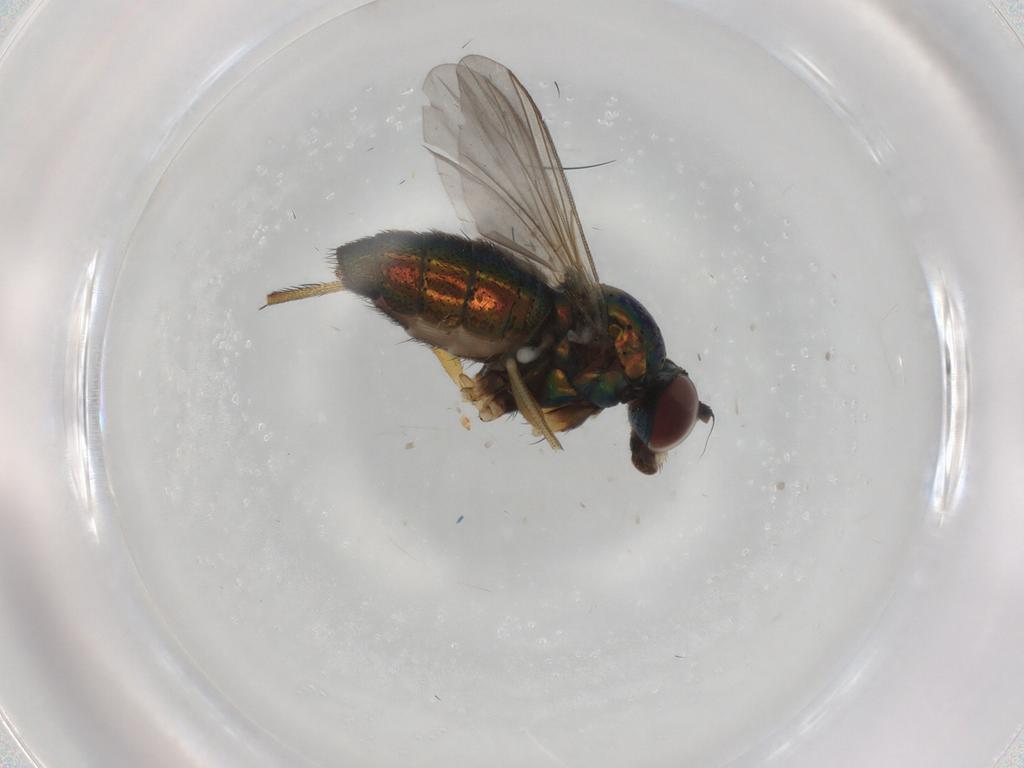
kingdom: Animalia
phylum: Arthropoda
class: Insecta
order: Diptera
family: Dolichopodidae
